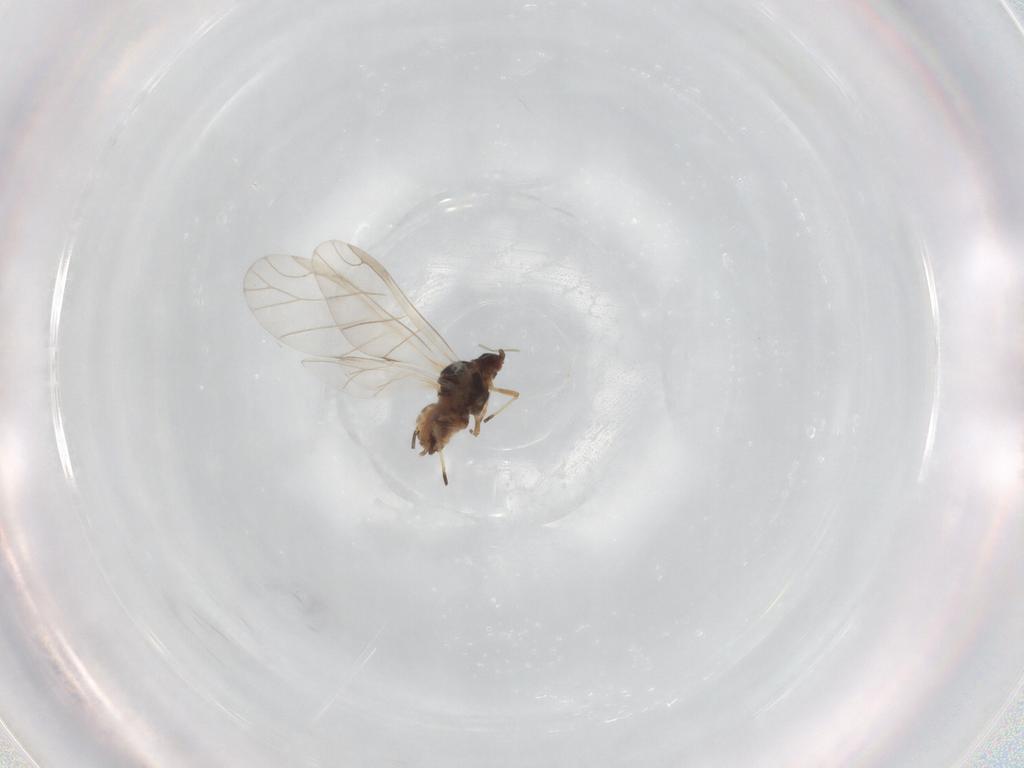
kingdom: Animalia
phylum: Arthropoda
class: Insecta
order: Hemiptera
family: Aphididae
